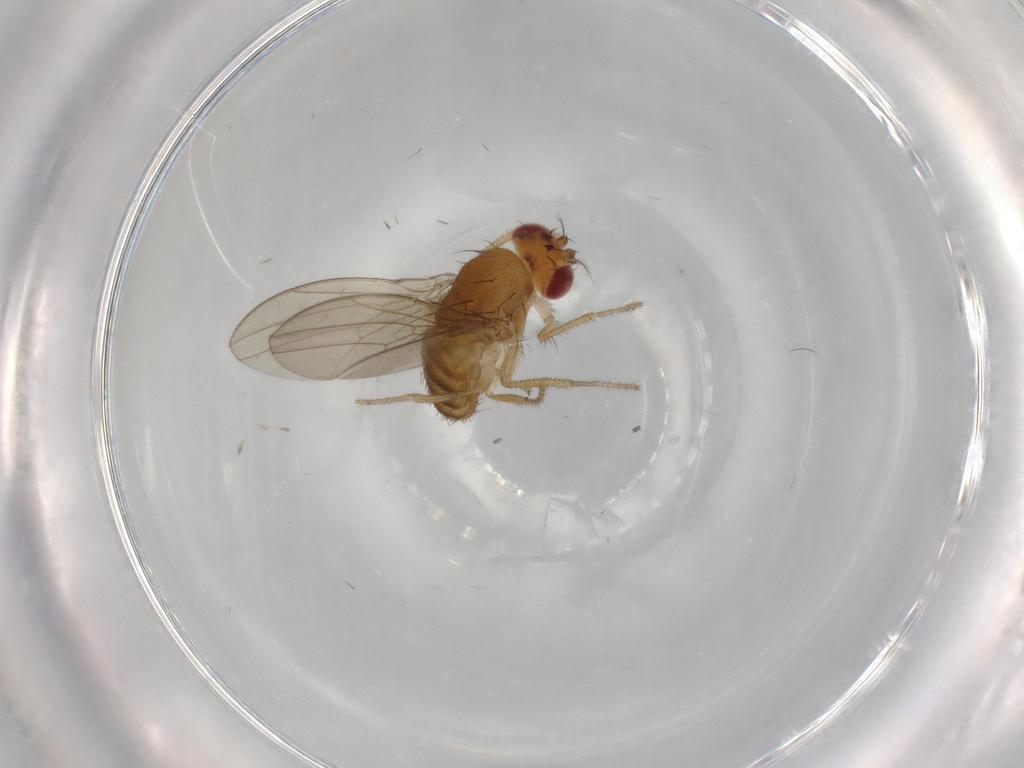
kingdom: Animalia
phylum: Arthropoda
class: Insecta
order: Diptera
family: Drosophilidae
